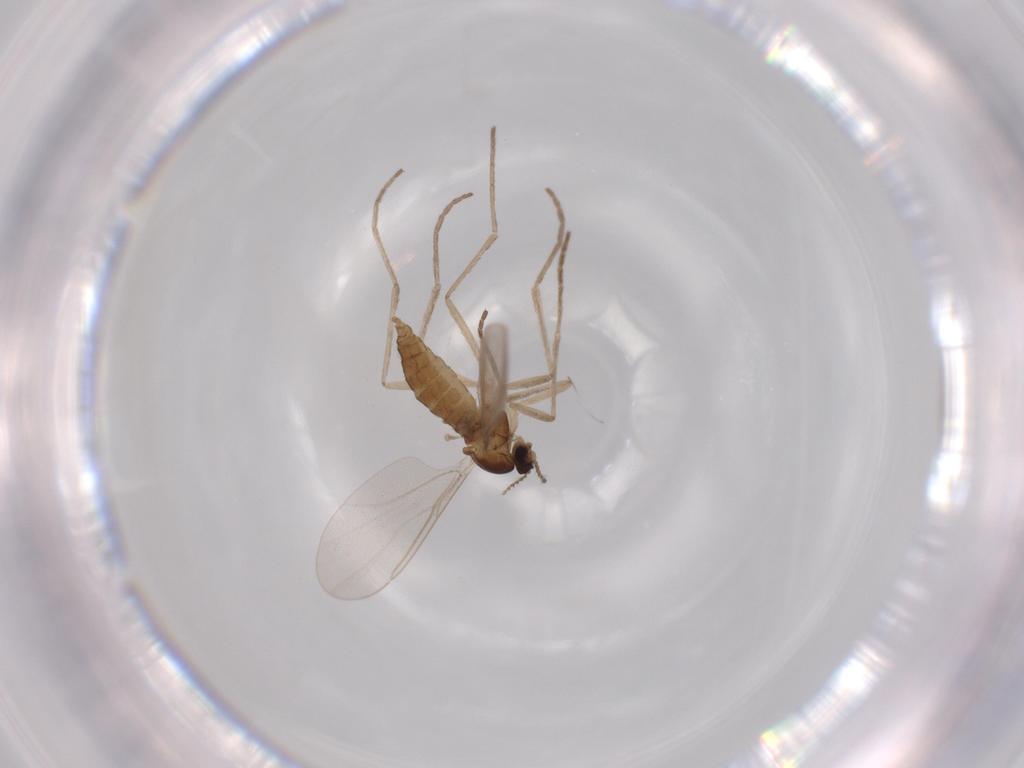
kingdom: Animalia
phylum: Arthropoda
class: Insecta
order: Diptera
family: Cecidomyiidae
